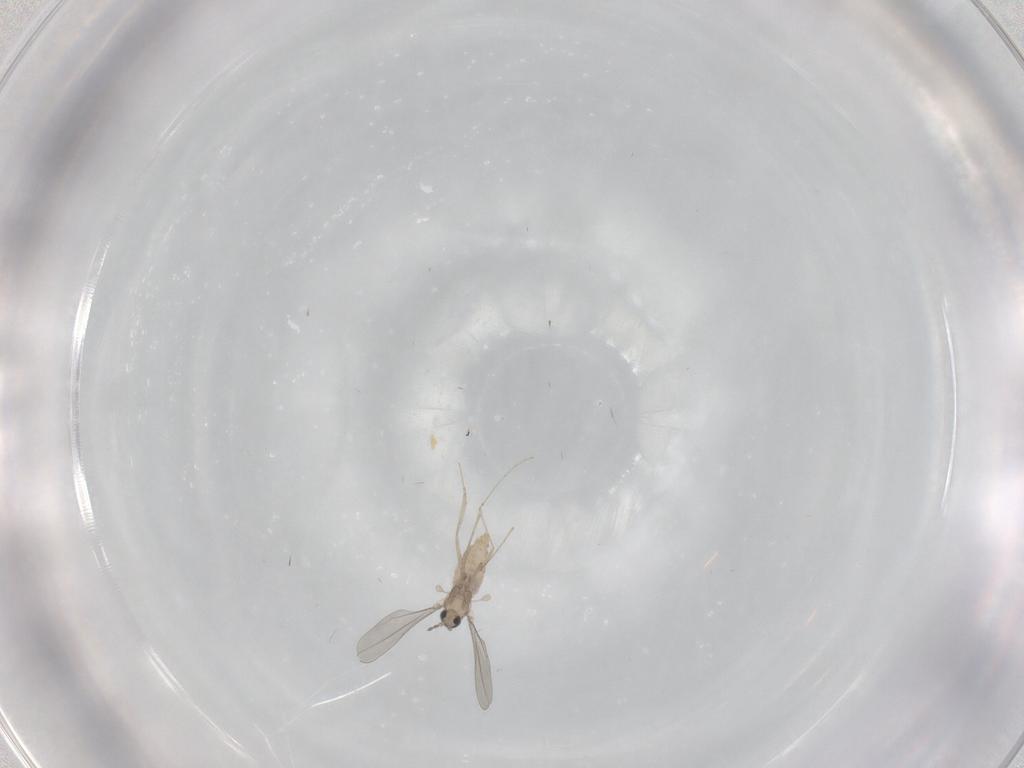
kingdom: Animalia
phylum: Arthropoda
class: Insecta
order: Diptera
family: Cecidomyiidae
